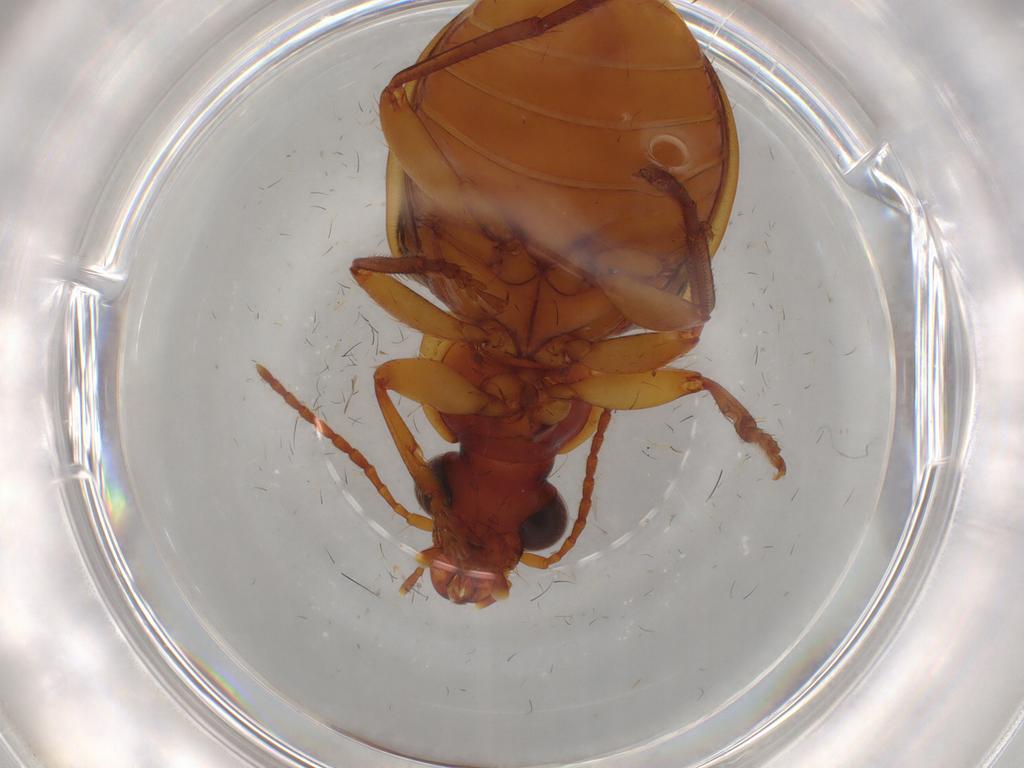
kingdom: Animalia
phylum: Arthropoda
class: Insecta
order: Coleoptera
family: Carabidae
